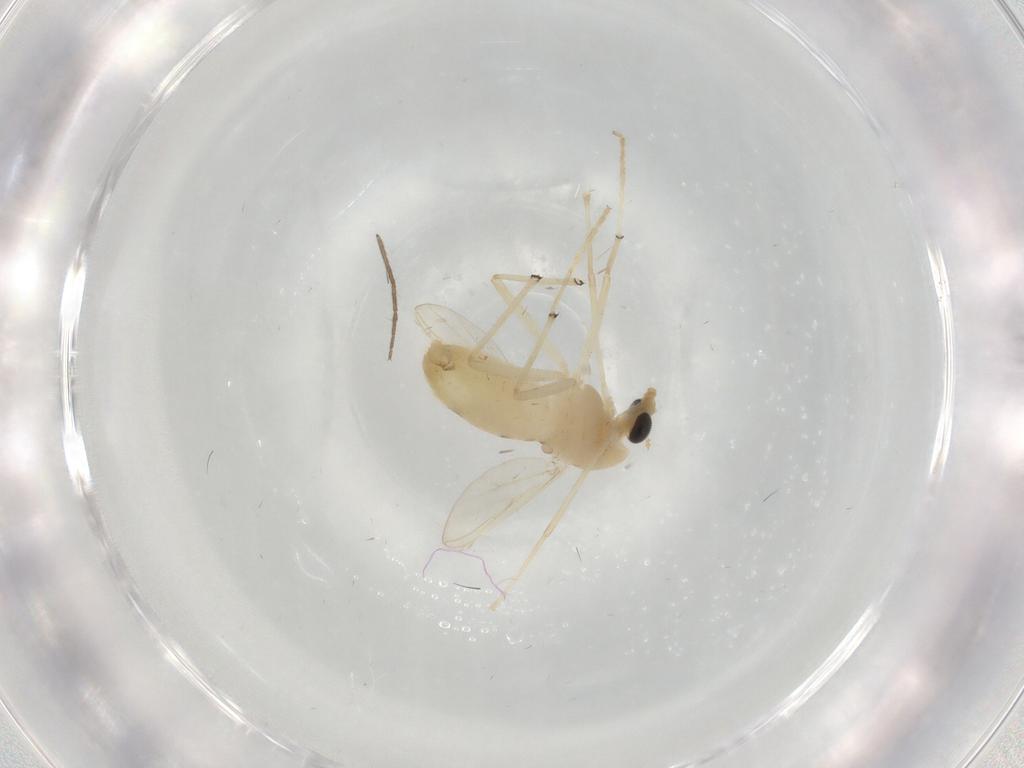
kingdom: Animalia
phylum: Arthropoda
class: Insecta
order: Diptera
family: Chironomidae
